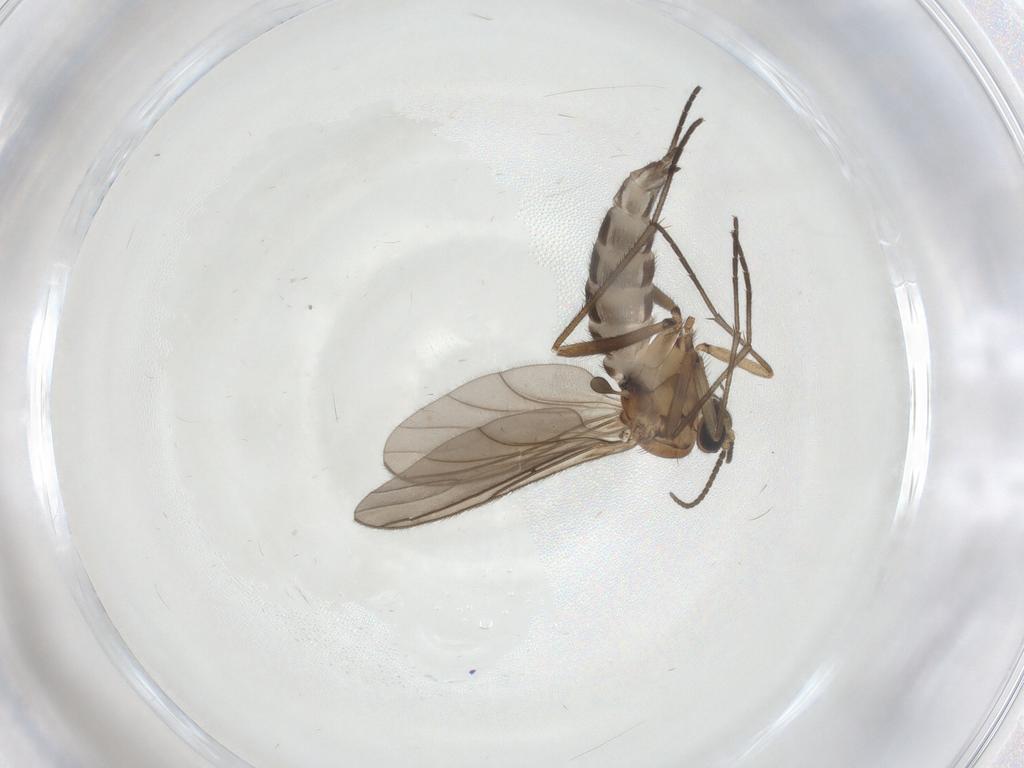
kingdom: Animalia
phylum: Arthropoda
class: Insecta
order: Diptera
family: Sciaridae
